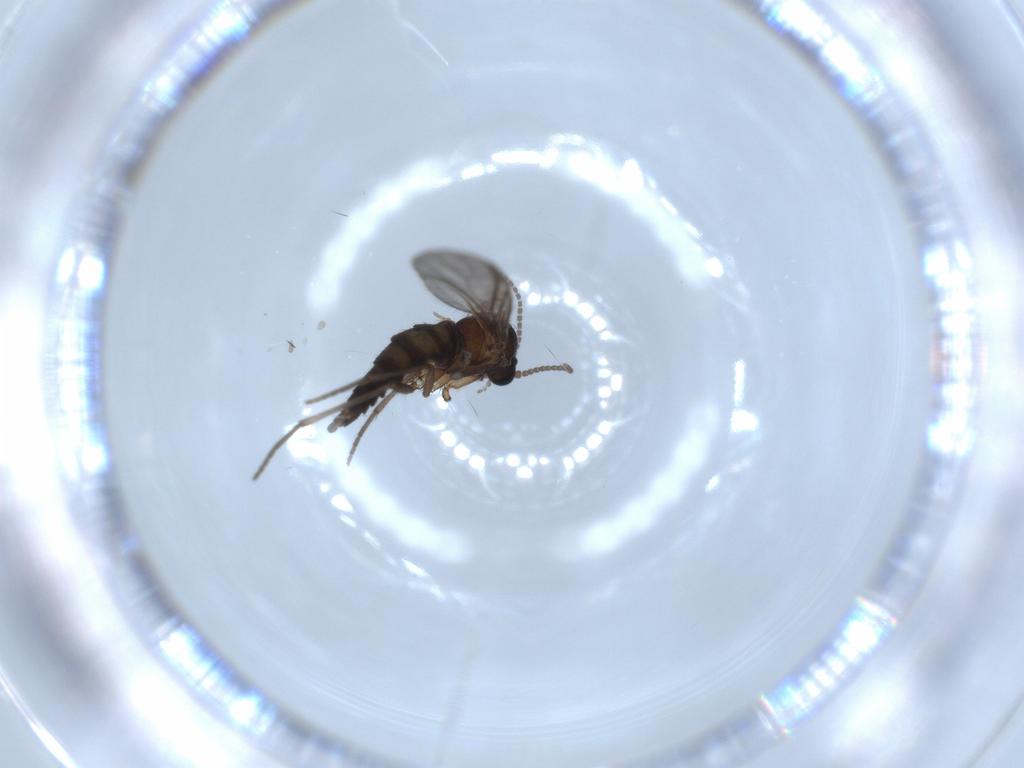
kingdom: Animalia
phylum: Arthropoda
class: Insecta
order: Diptera
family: Sciaridae
